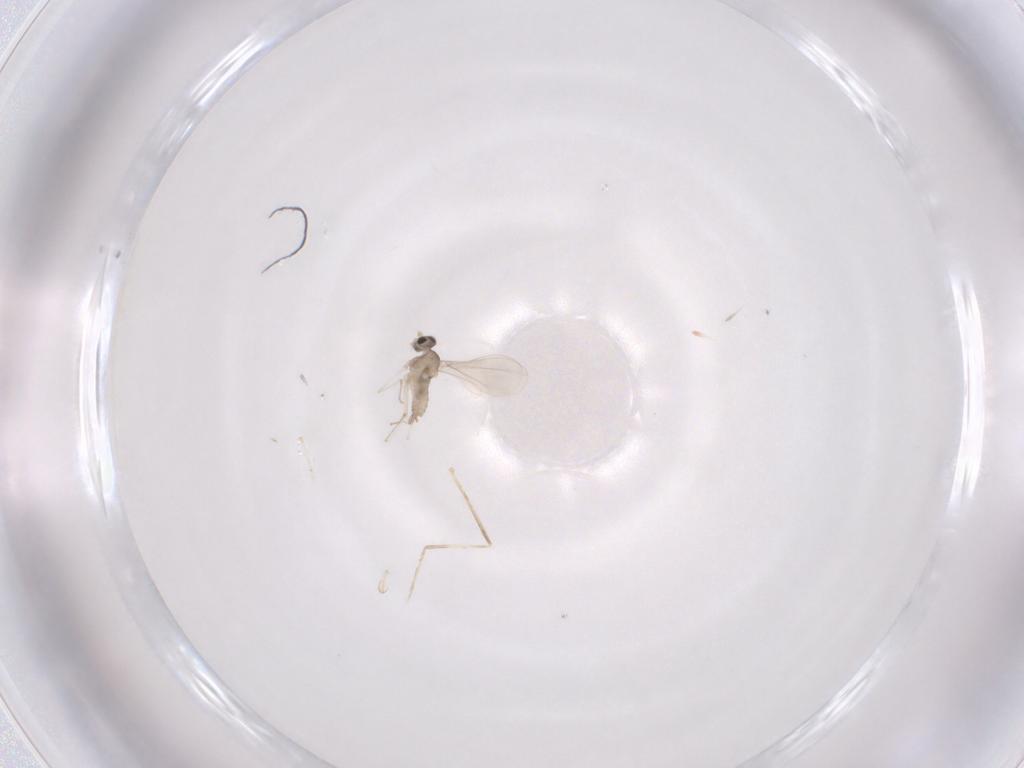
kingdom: Animalia
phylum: Arthropoda
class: Insecta
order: Diptera
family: Cecidomyiidae
